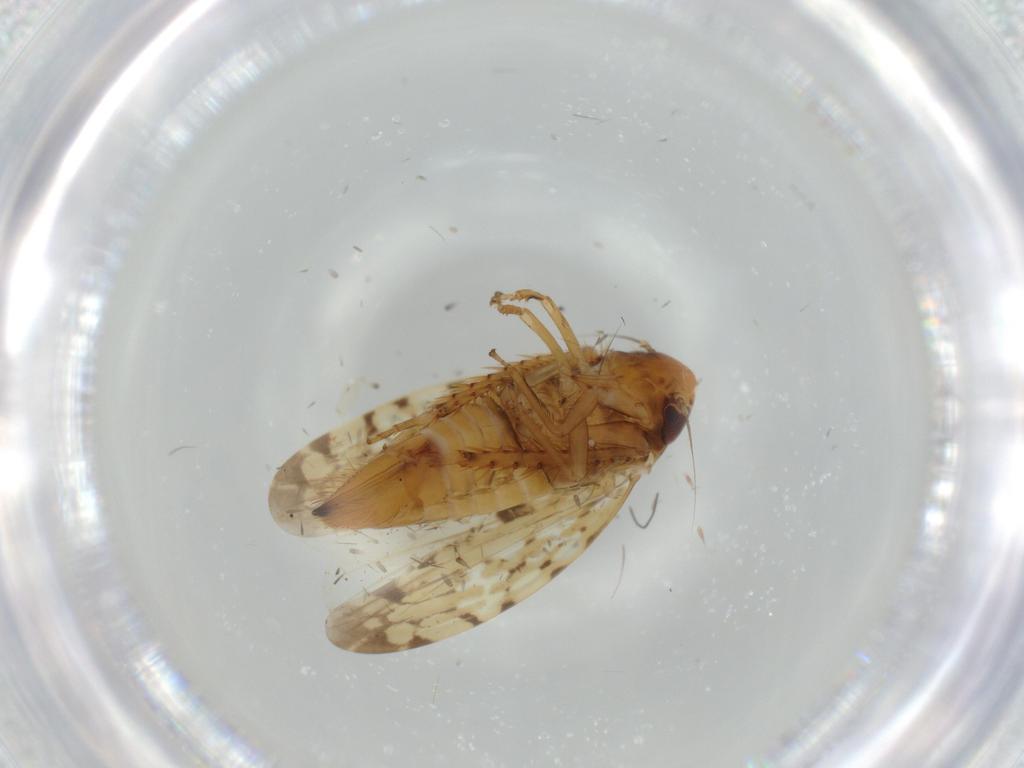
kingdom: Animalia
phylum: Arthropoda
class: Insecta
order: Hemiptera
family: Cicadellidae
